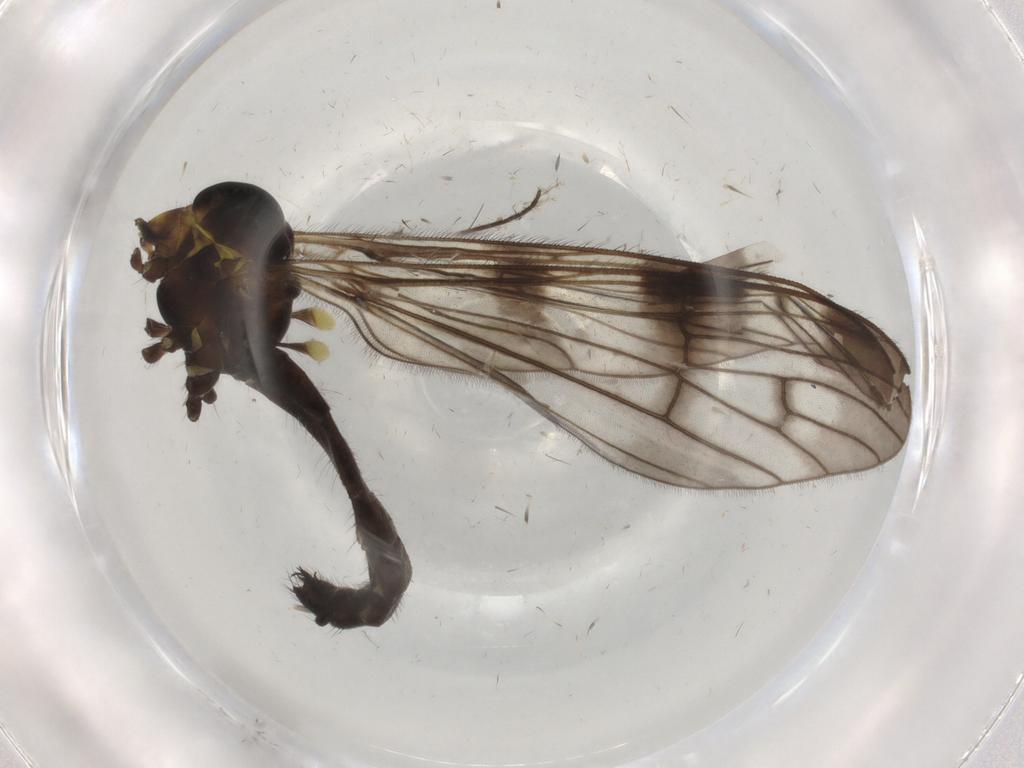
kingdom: Animalia
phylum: Arthropoda
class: Insecta
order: Diptera
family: Limoniidae
